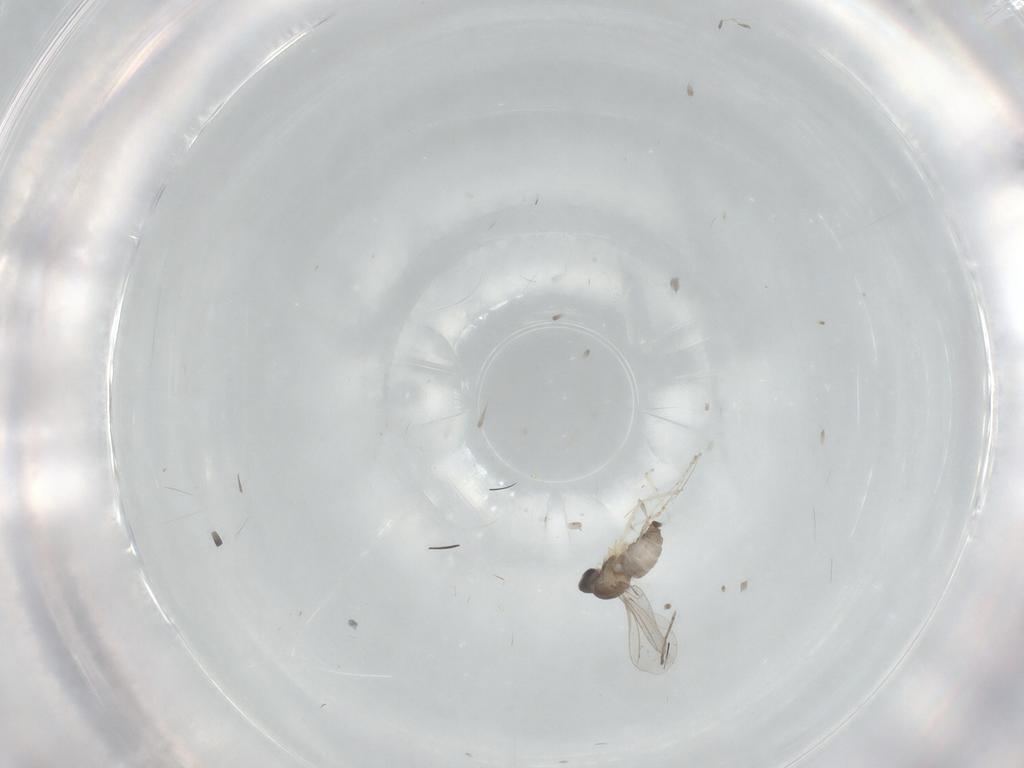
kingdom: Animalia
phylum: Arthropoda
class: Insecta
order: Diptera
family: Cecidomyiidae
